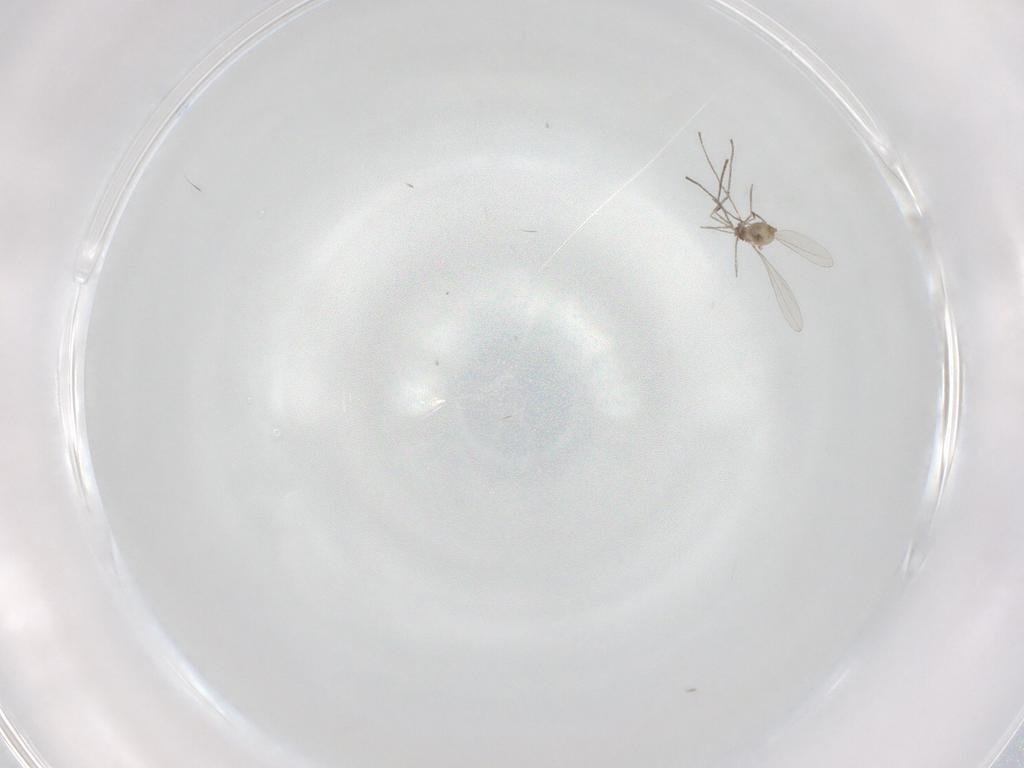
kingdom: Animalia
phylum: Arthropoda
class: Insecta
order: Diptera
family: Cecidomyiidae
